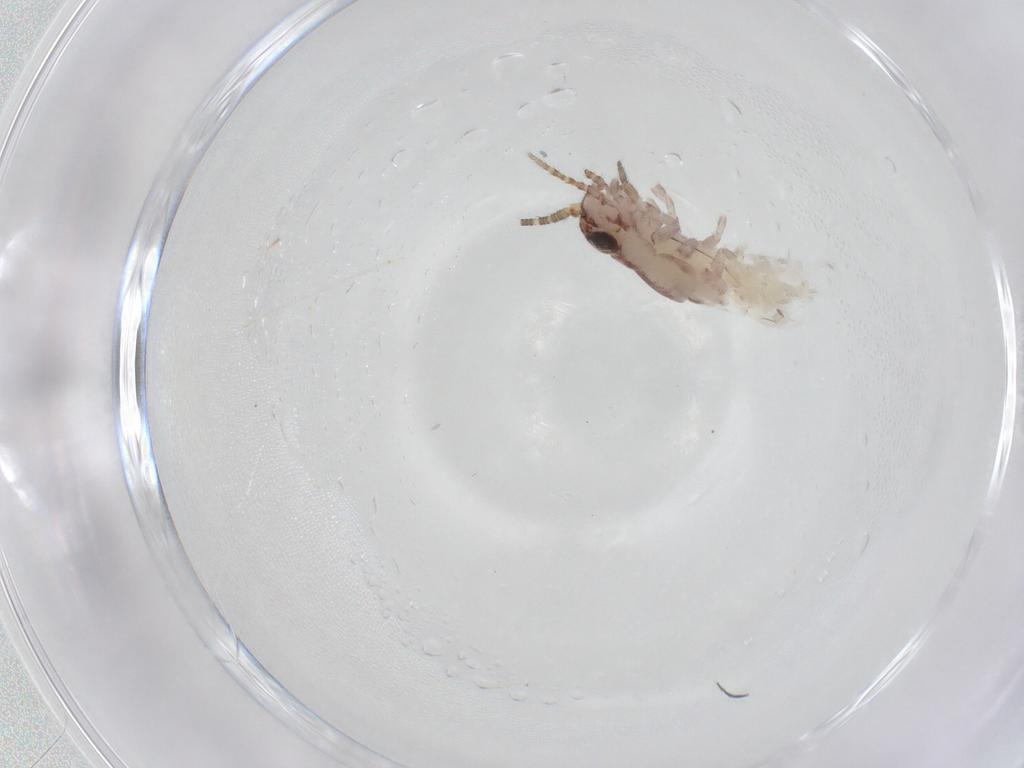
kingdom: Animalia
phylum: Arthropoda
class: Insecta
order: Archaeognatha
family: Meinertellidae
